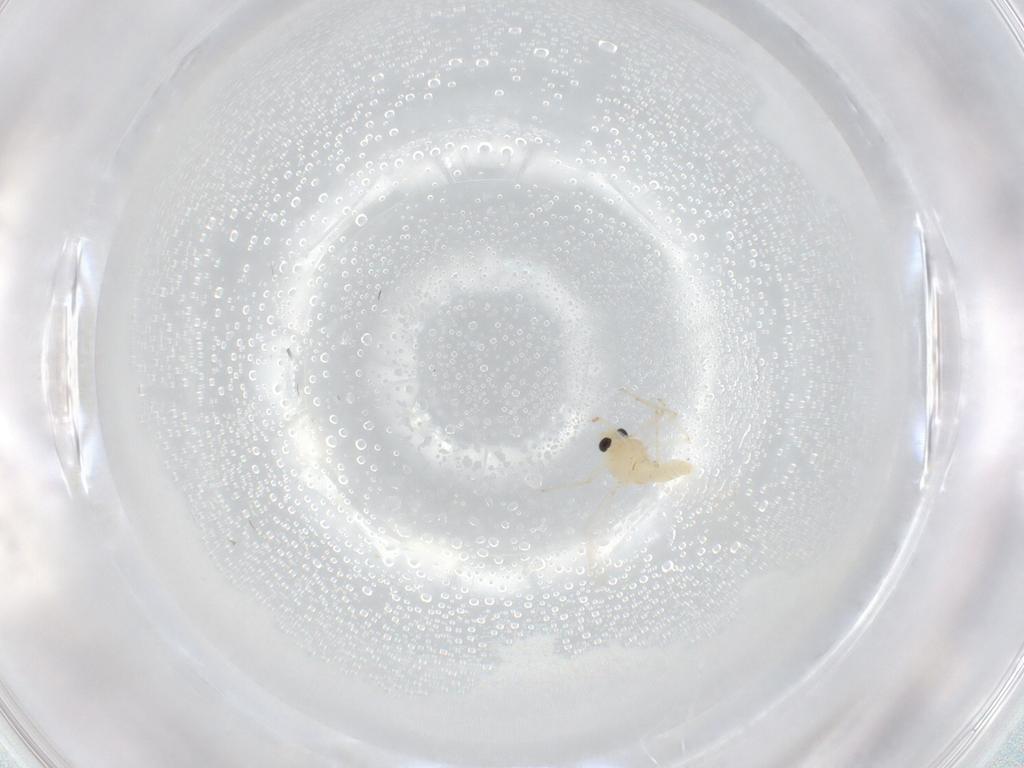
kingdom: Animalia
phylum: Arthropoda
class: Insecta
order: Diptera
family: Chironomidae
